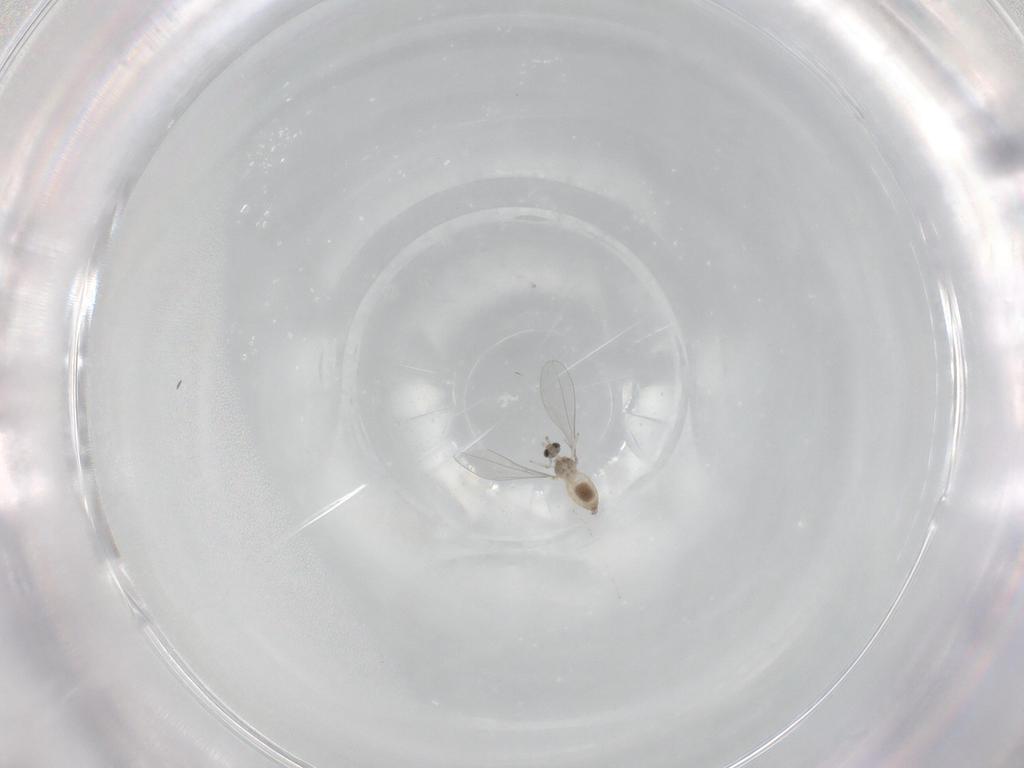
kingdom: Animalia
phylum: Arthropoda
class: Insecta
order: Diptera
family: Cecidomyiidae
